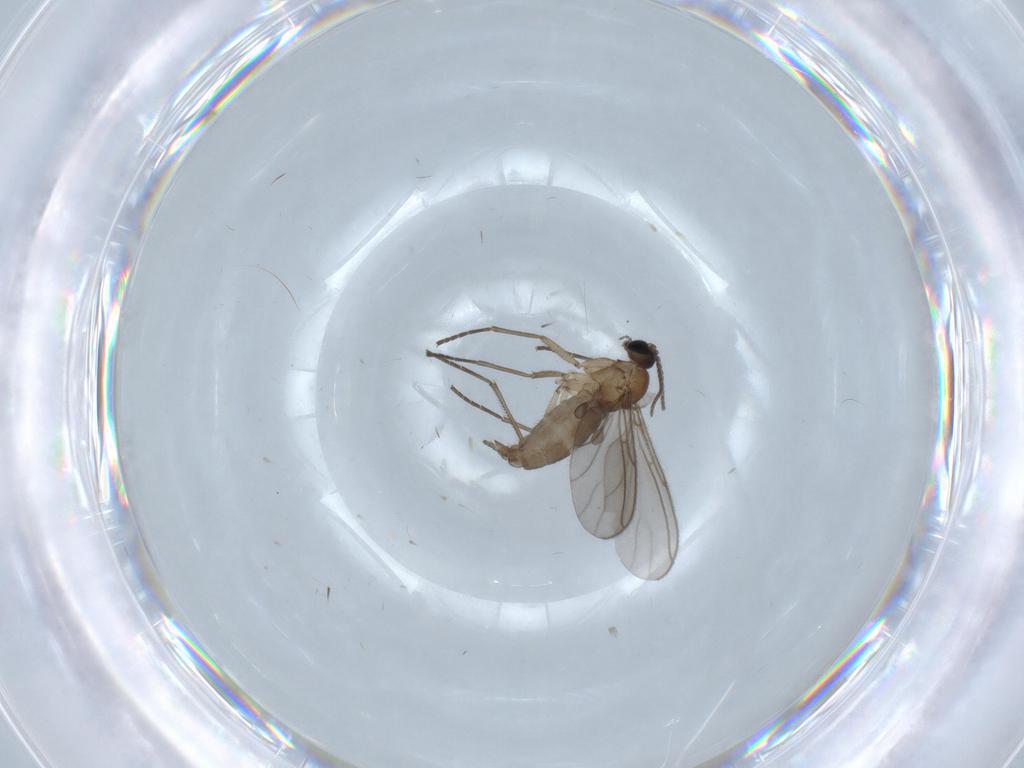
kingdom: Animalia
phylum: Arthropoda
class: Insecta
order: Diptera
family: Sciaridae
